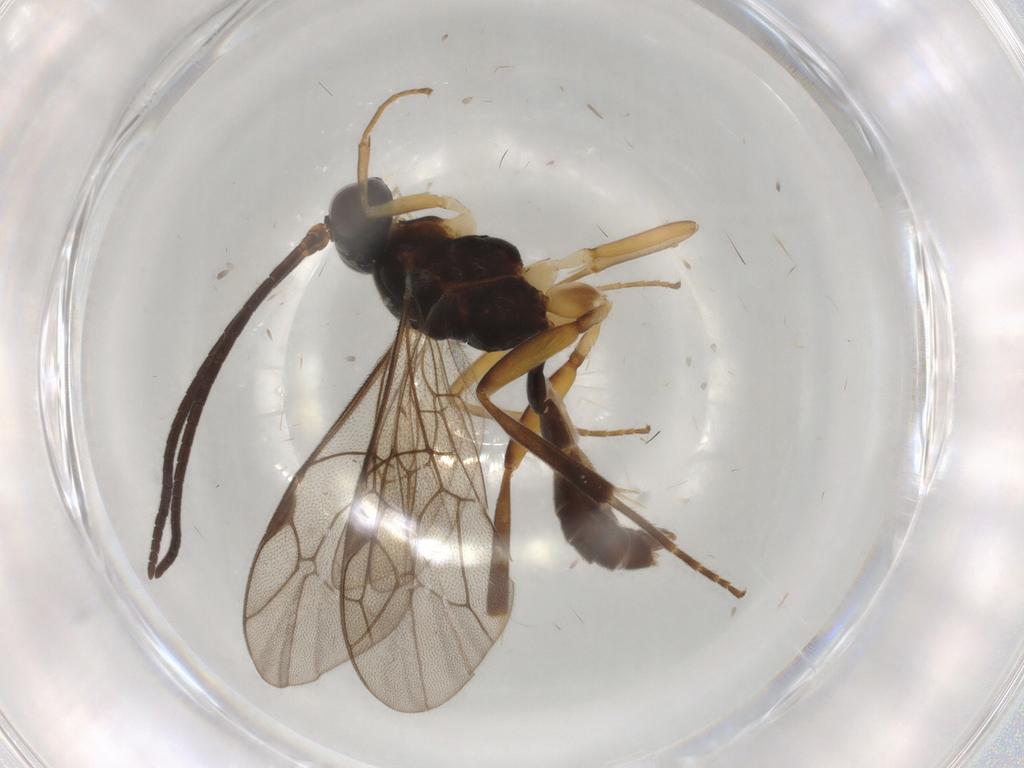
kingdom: Animalia
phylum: Arthropoda
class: Insecta
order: Hymenoptera
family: Ichneumonidae
